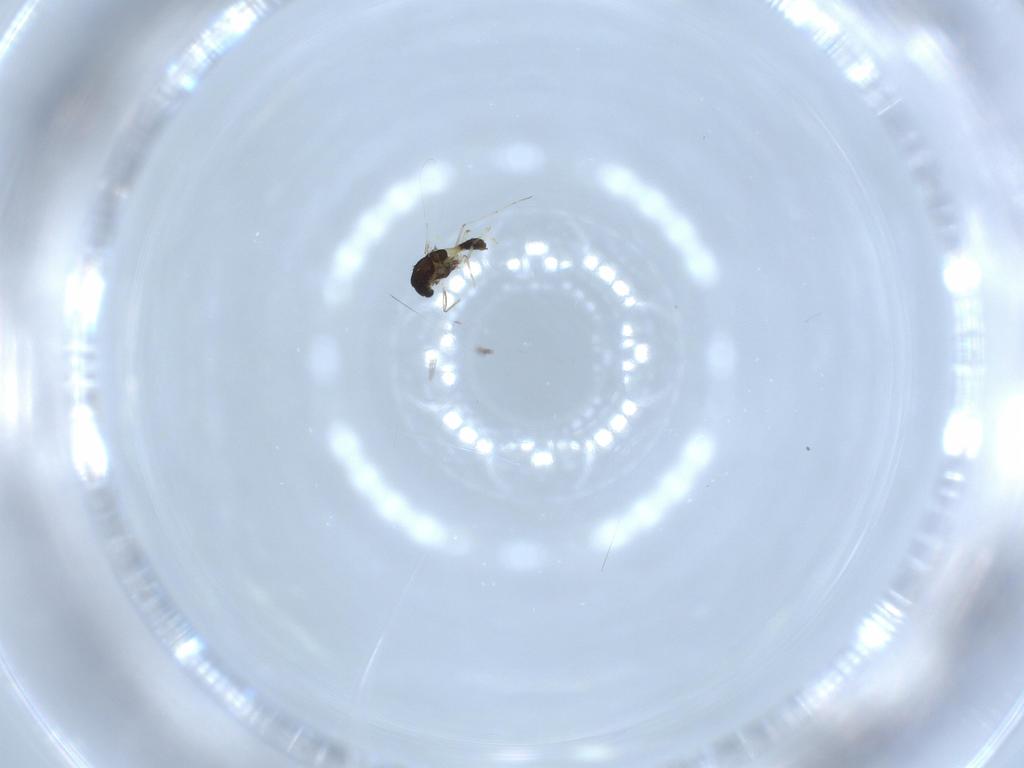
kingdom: Animalia
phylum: Arthropoda
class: Insecta
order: Diptera
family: Chironomidae
